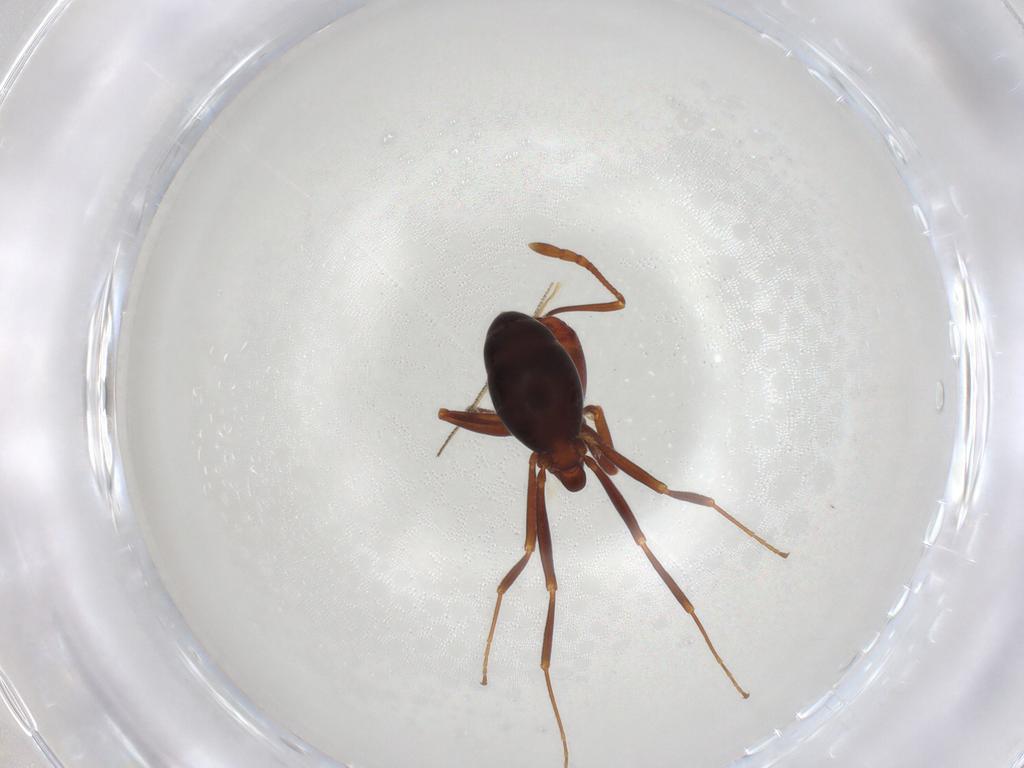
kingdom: Animalia
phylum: Arthropoda
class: Insecta
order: Hymenoptera
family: Formicidae
